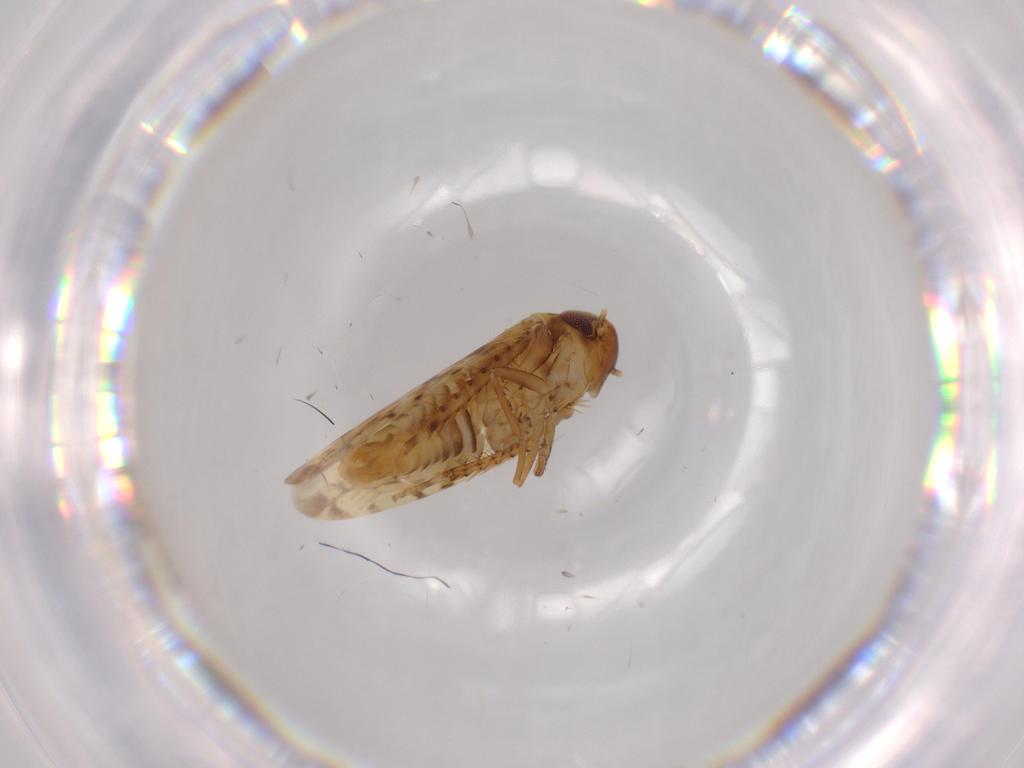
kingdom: Animalia
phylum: Arthropoda
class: Insecta
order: Hemiptera
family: Cicadellidae
